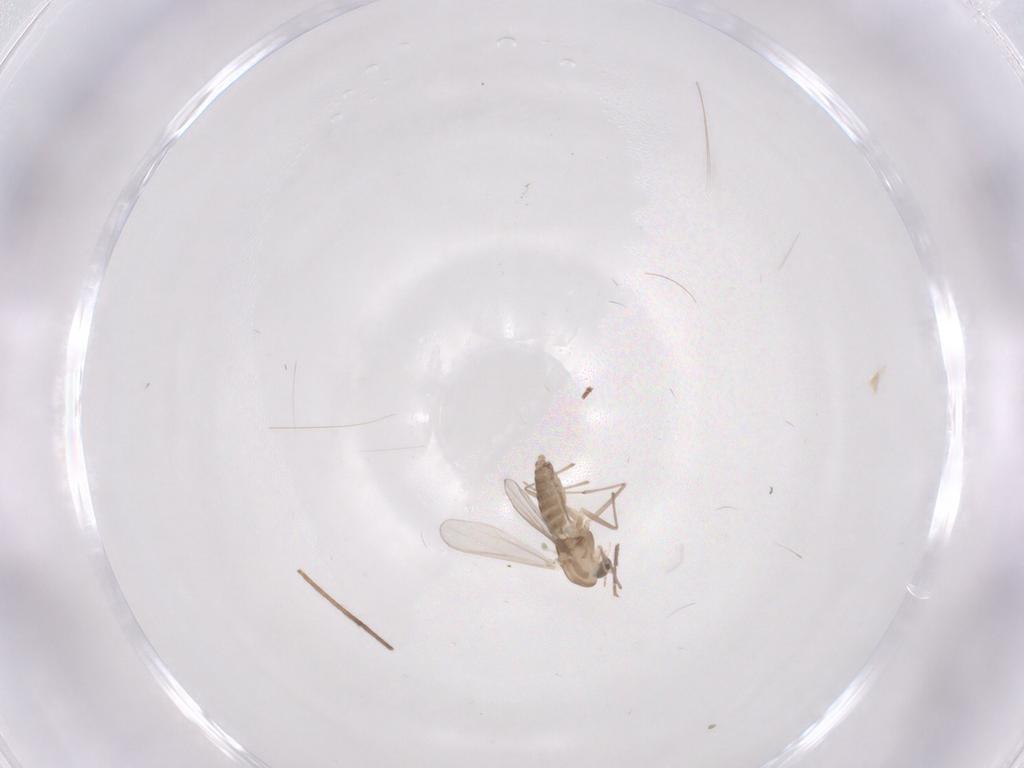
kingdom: Animalia
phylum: Arthropoda
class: Insecta
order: Diptera
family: Chironomidae
